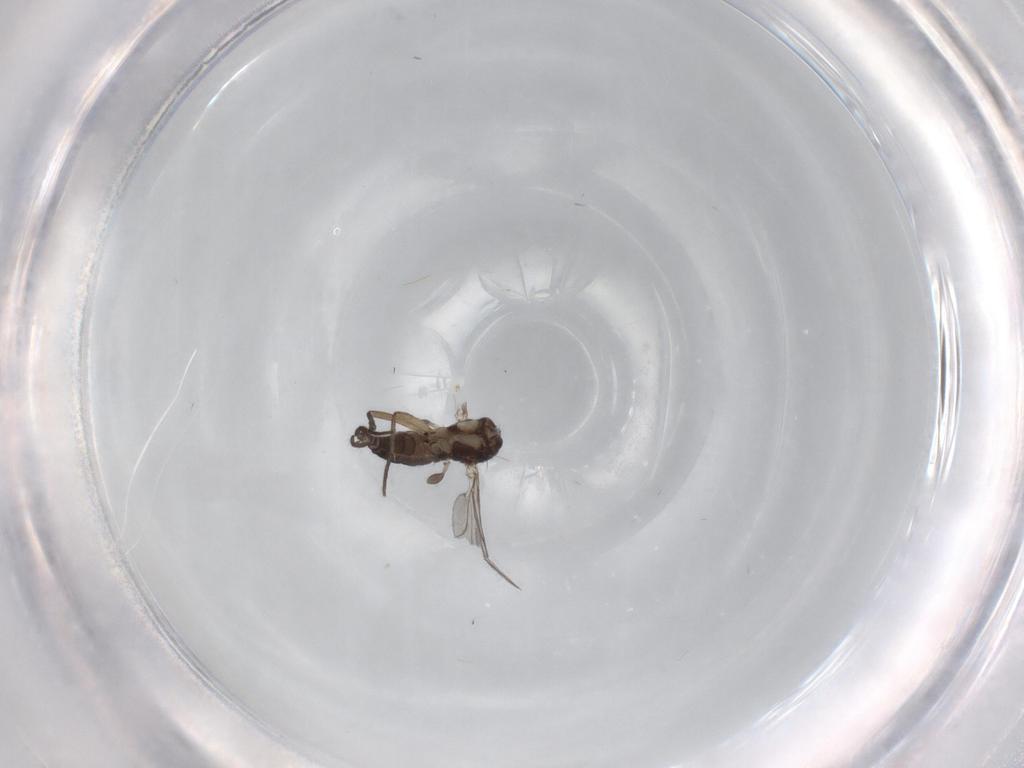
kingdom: Animalia
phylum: Arthropoda
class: Insecta
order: Diptera
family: Sciaridae
